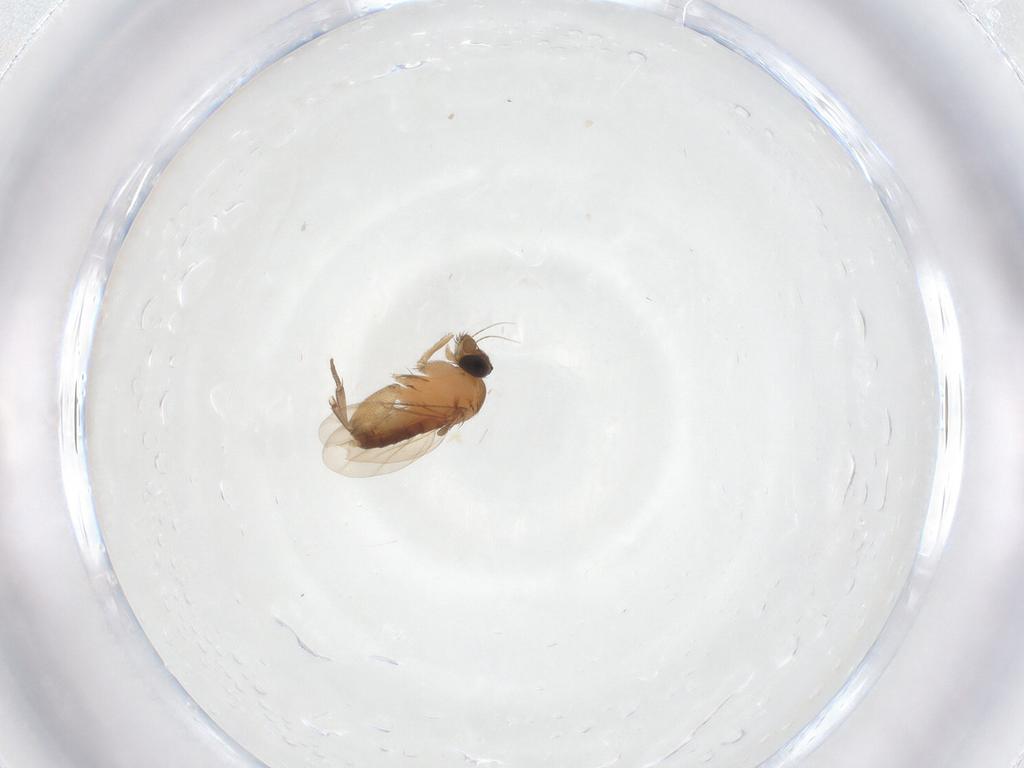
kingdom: Animalia
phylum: Arthropoda
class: Insecta
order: Diptera
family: Phoridae
